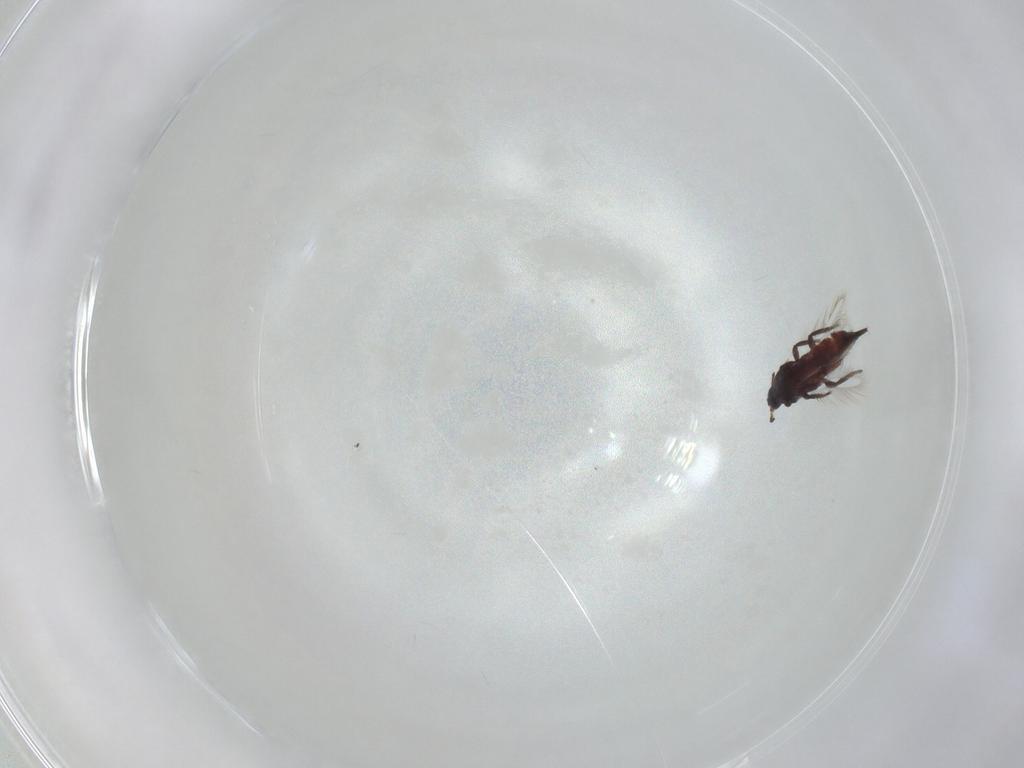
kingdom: Animalia
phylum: Arthropoda
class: Insecta
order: Thysanoptera
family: Phlaeothripidae
